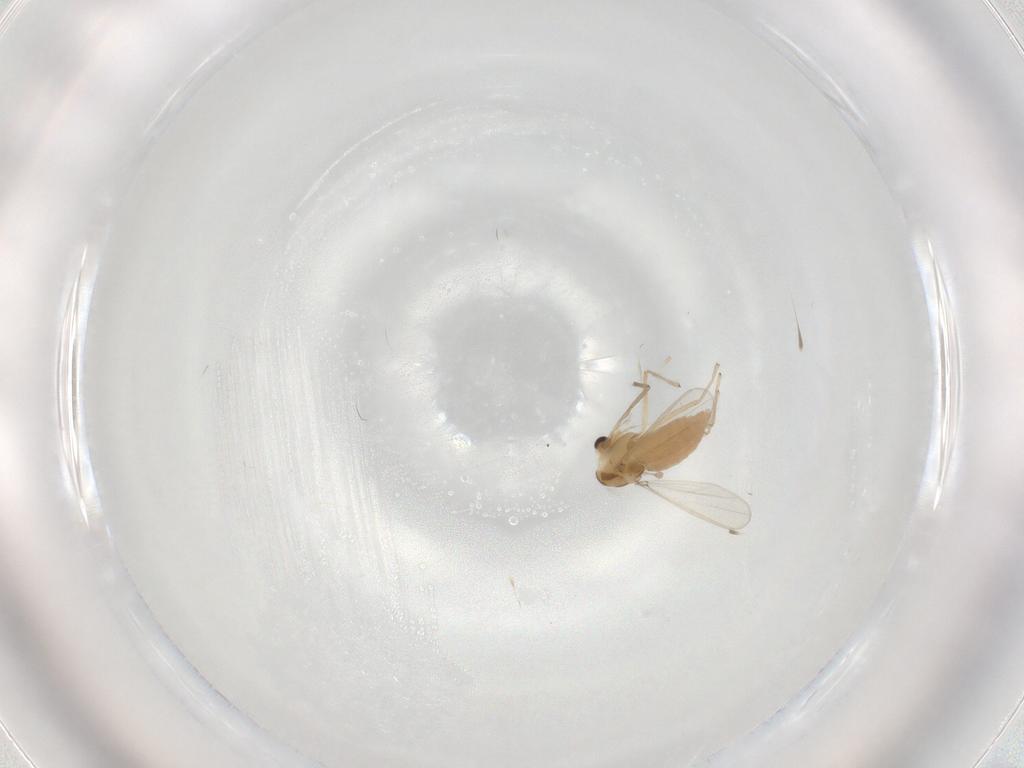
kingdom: Animalia
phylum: Arthropoda
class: Insecta
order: Diptera
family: Chironomidae
